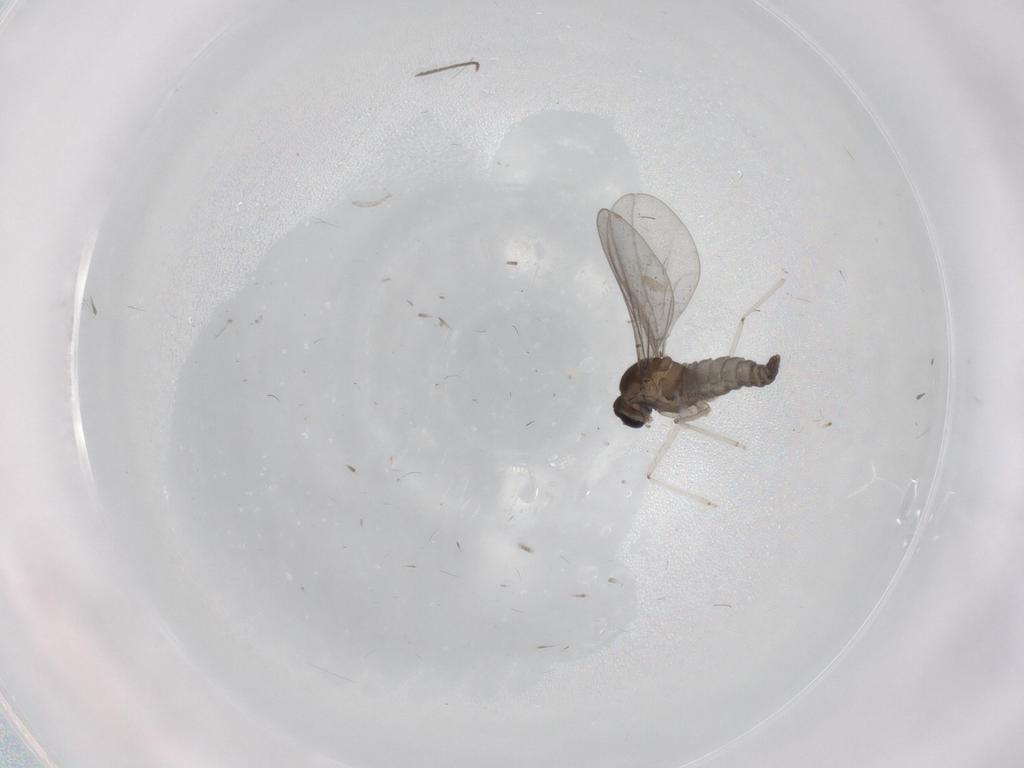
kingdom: Animalia
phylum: Arthropoda
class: Insecta
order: Diptera
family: Cecidomyiidae
